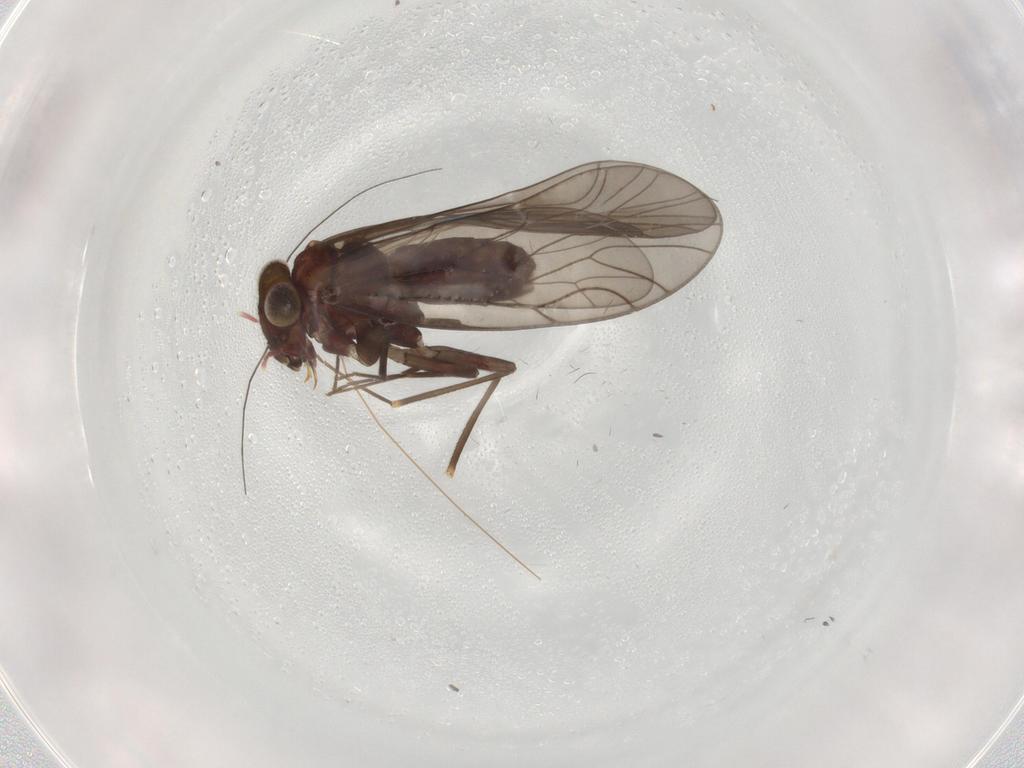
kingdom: Animalia
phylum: Arthropoda
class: Insecta
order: Psocodea
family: Philotarsidae
